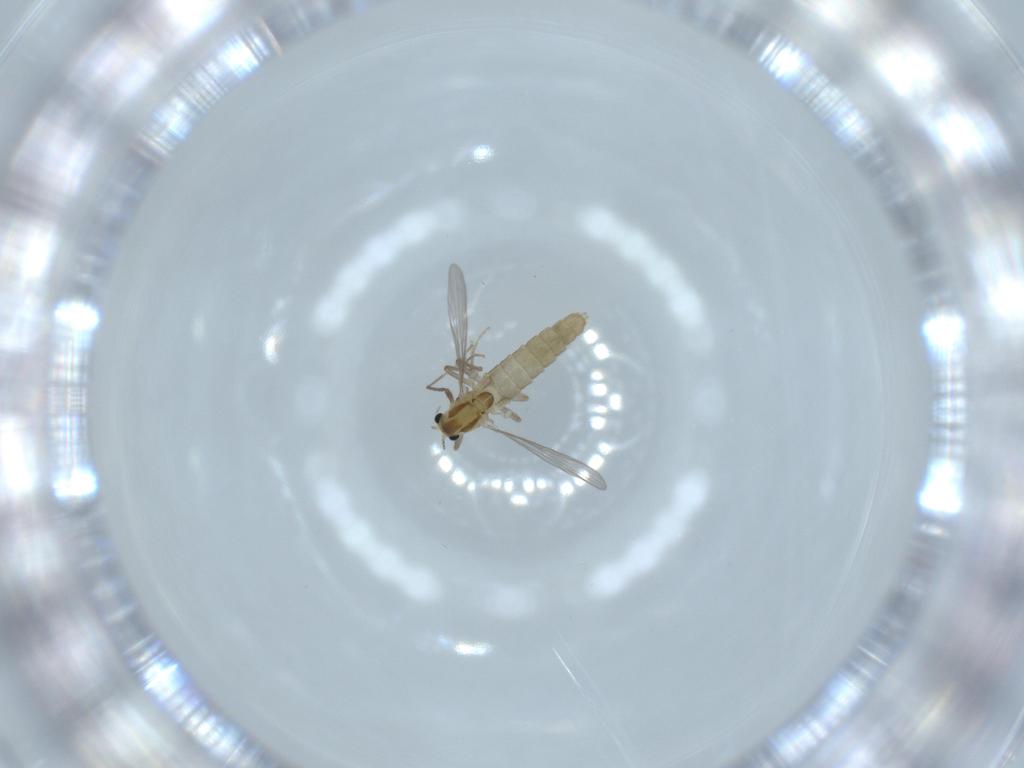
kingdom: Animalia
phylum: Arthropoda
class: Insecta
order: Diptera
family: Chironomidae
